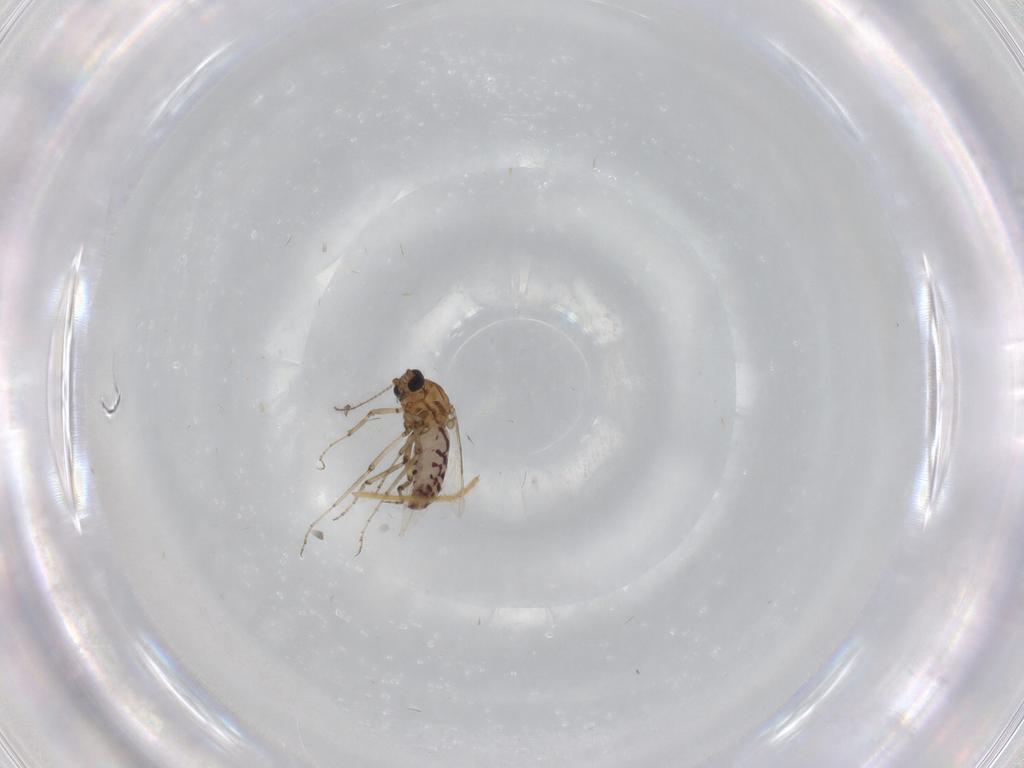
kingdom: Animalia
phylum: Arthropoda
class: Insecta
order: Diptera
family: Ceratopogonidae
